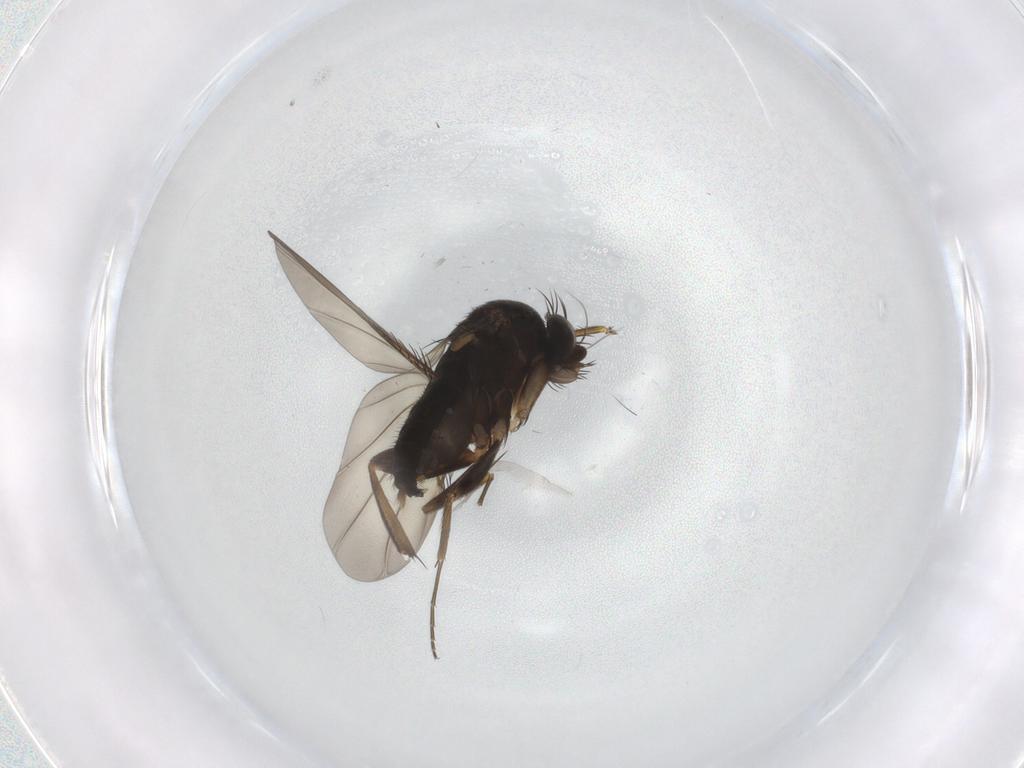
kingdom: Animalia
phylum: Arthropoda
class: Insecta
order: Diptera
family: Phoridae
